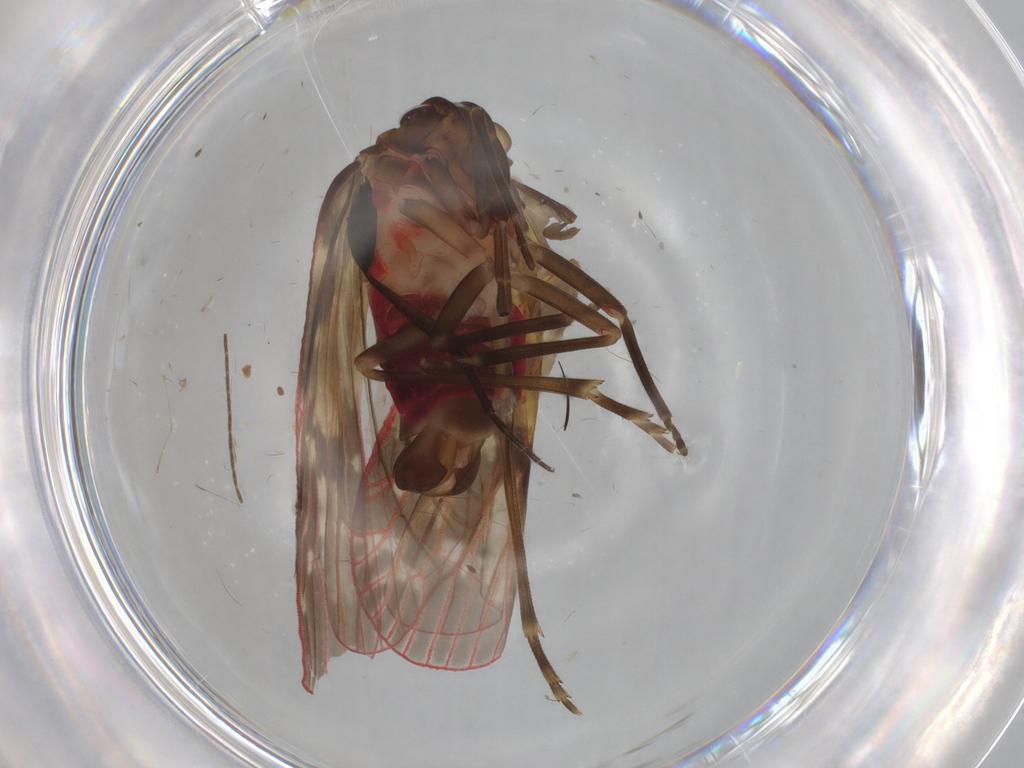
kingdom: Animalia
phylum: Arthropoda
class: Insecta
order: Hemiptera
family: Achilidae
